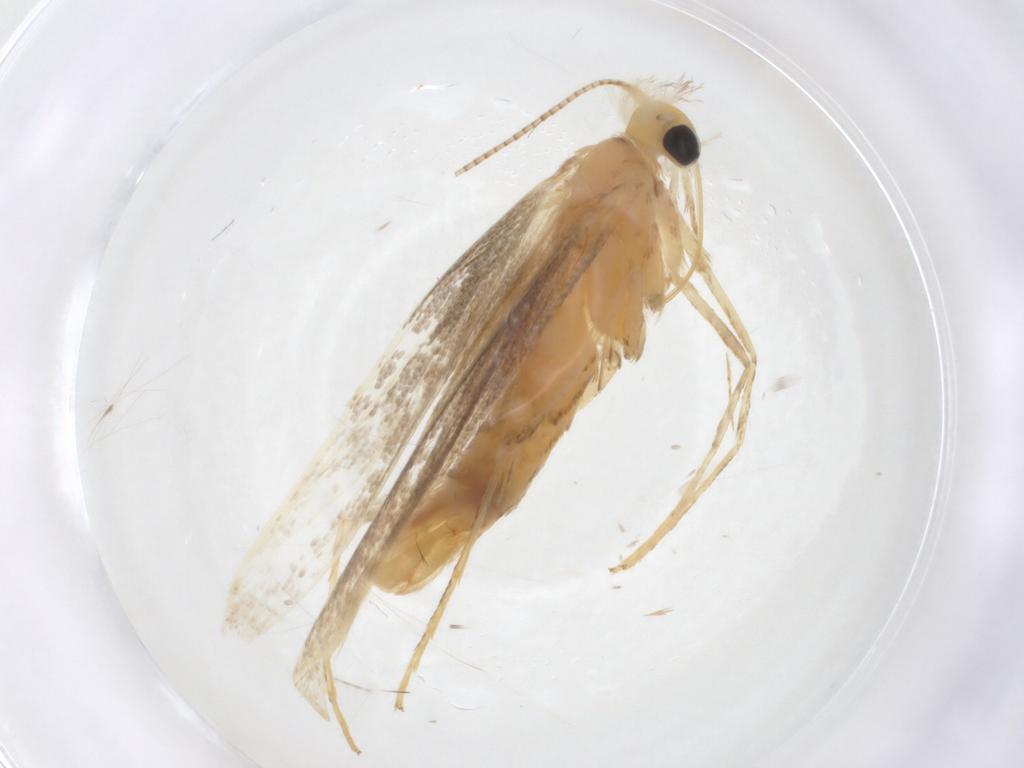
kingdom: Animalia
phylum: Arthropoda
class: Insecta
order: Lepidoptera
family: Gracillariidae
